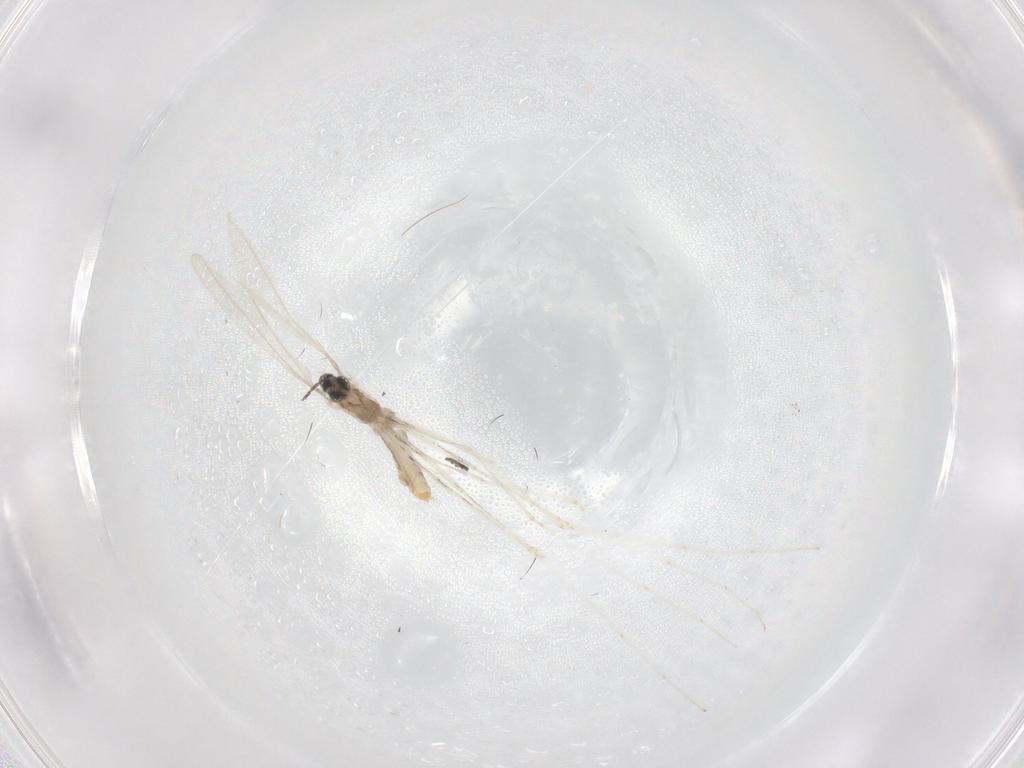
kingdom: Animalia
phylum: Arthropoda
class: Insecta
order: Diptera
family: Cecidomyiidae
